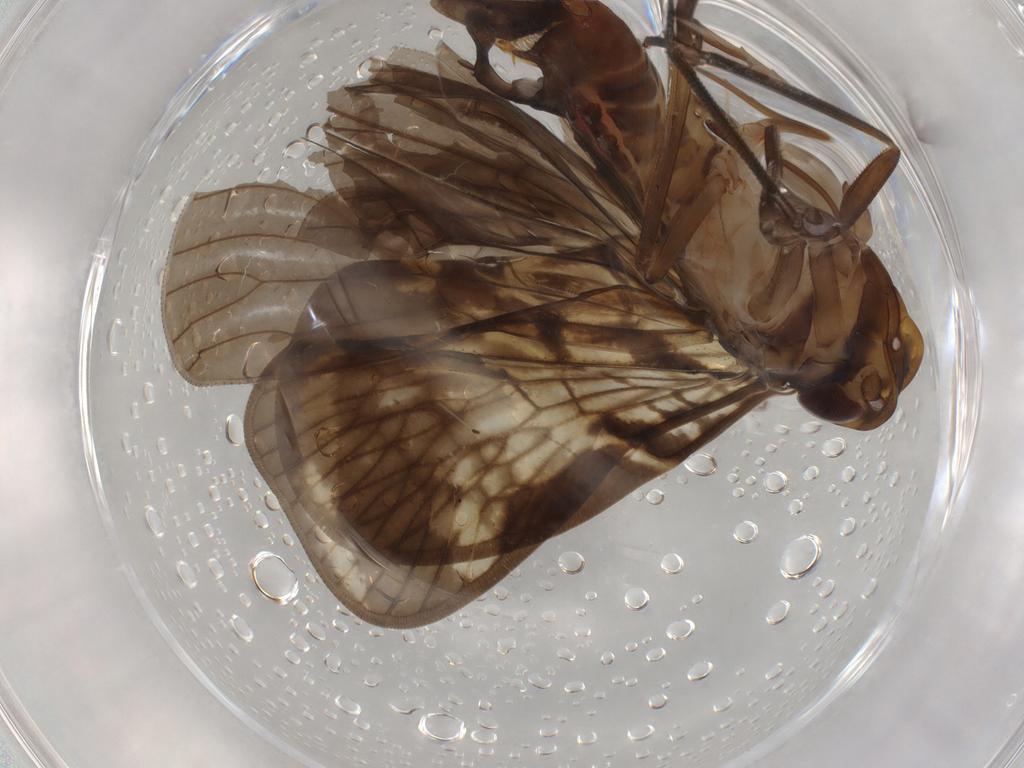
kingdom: Animalia
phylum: Arthropoda
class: Insecta
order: Hemiptera
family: Cixiidae
